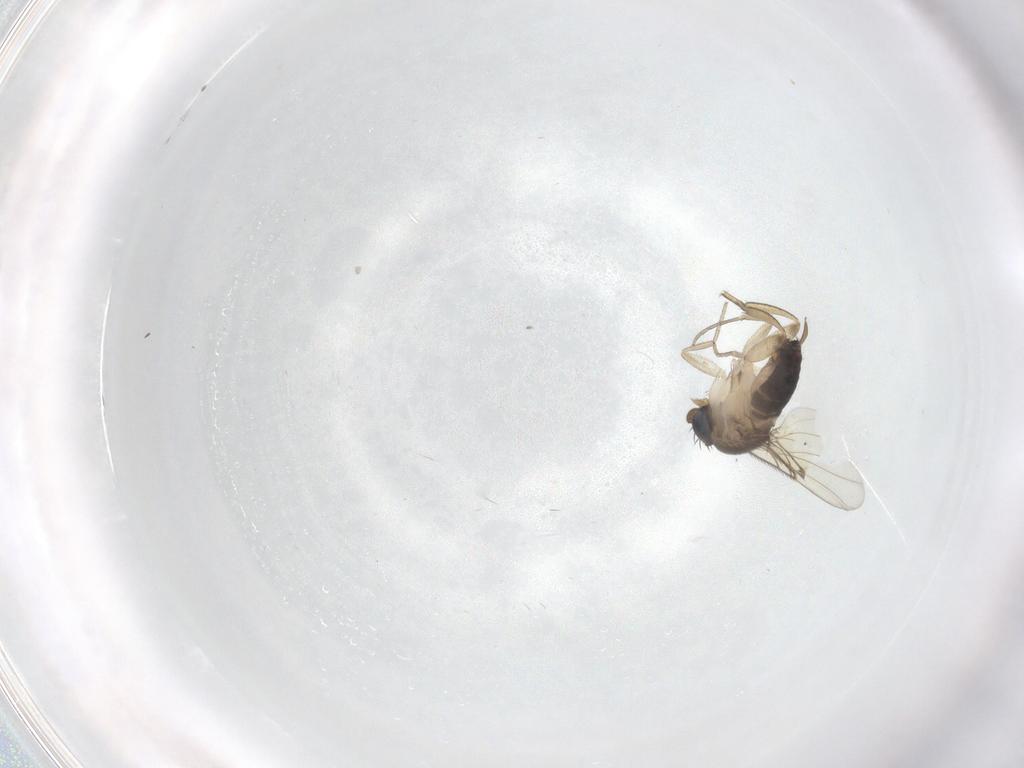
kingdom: Animalia
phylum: Arthropoda
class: Insecta
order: Diptera
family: Phoridae
